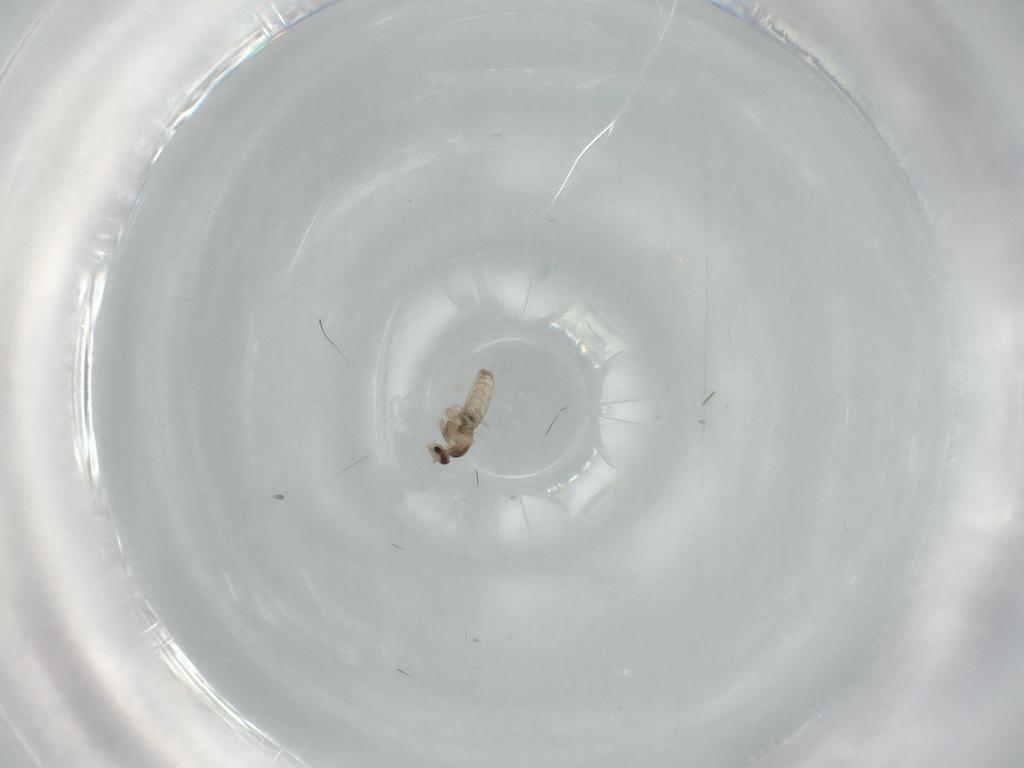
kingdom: Animalia
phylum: Arthropoda
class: Insecta
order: Diptera
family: Cecidomyiidae
